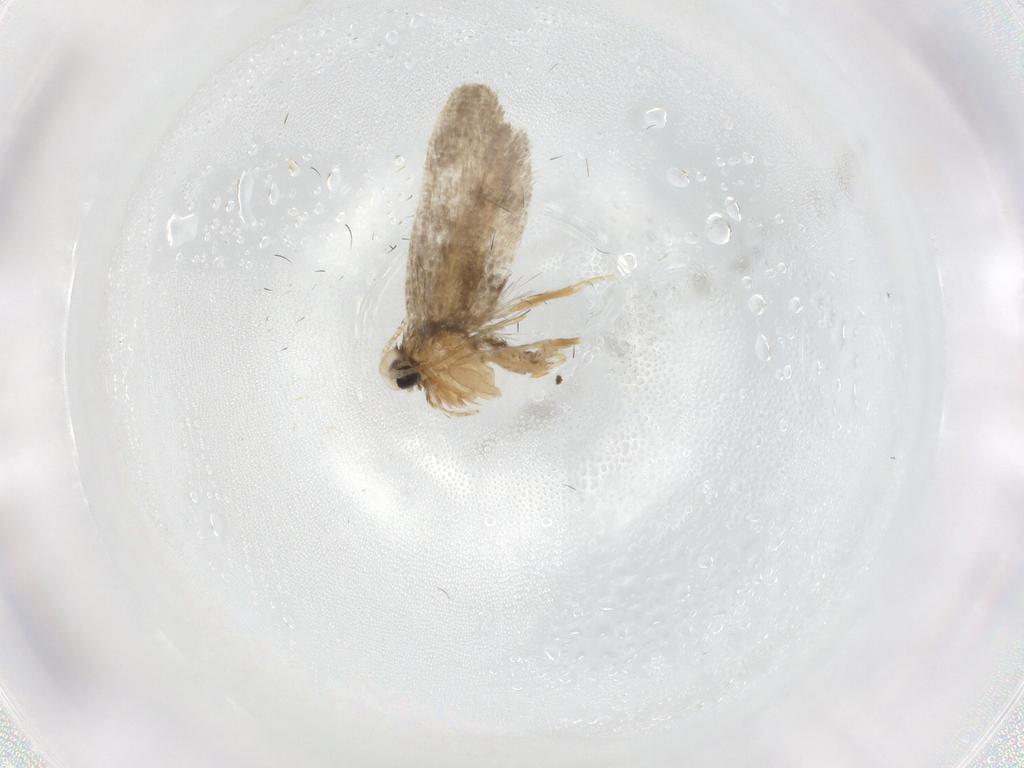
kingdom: Animalia
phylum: Arthropoda
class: Insecta
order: Lepidoptera
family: Psychidae
